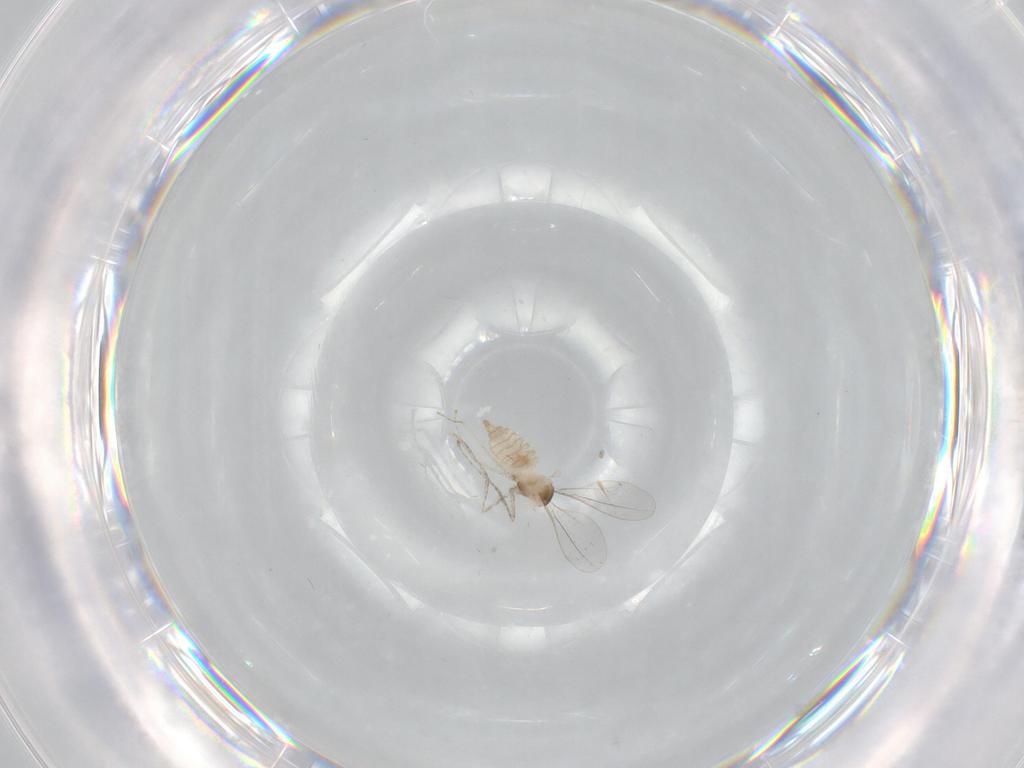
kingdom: Animalia
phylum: Arthropoda
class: Insecta
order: Diptera
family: Cecidomyiidae
